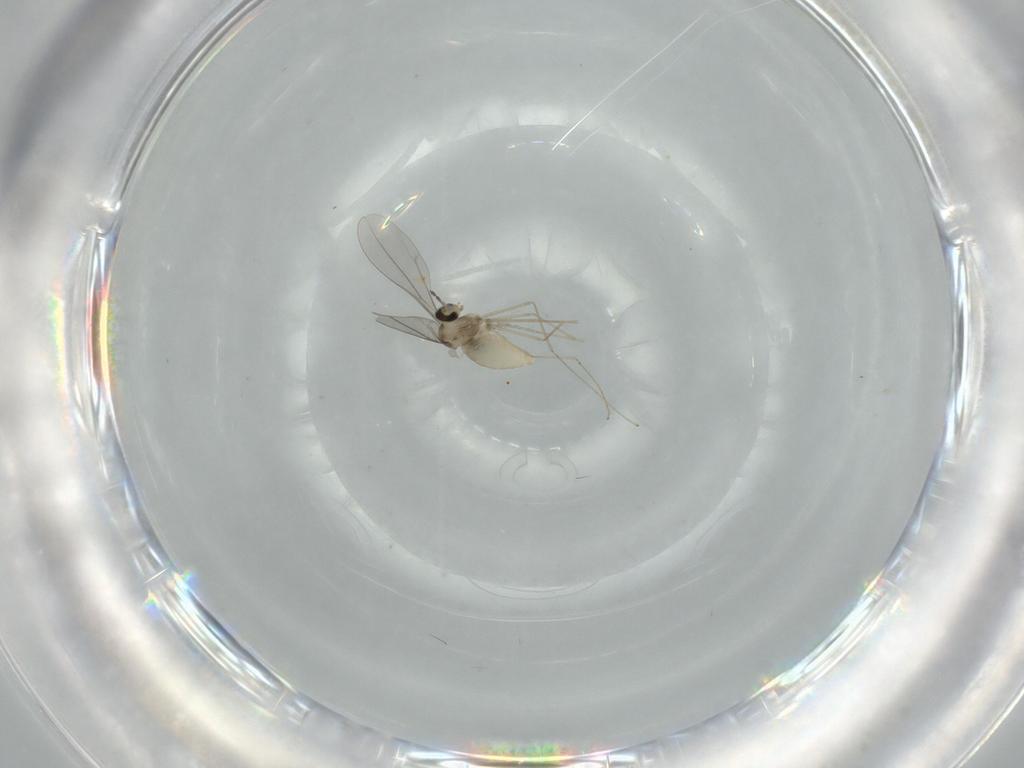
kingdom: Animalia
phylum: Arthropoda
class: Insecta
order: Diptera
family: Cecidomyiidae
